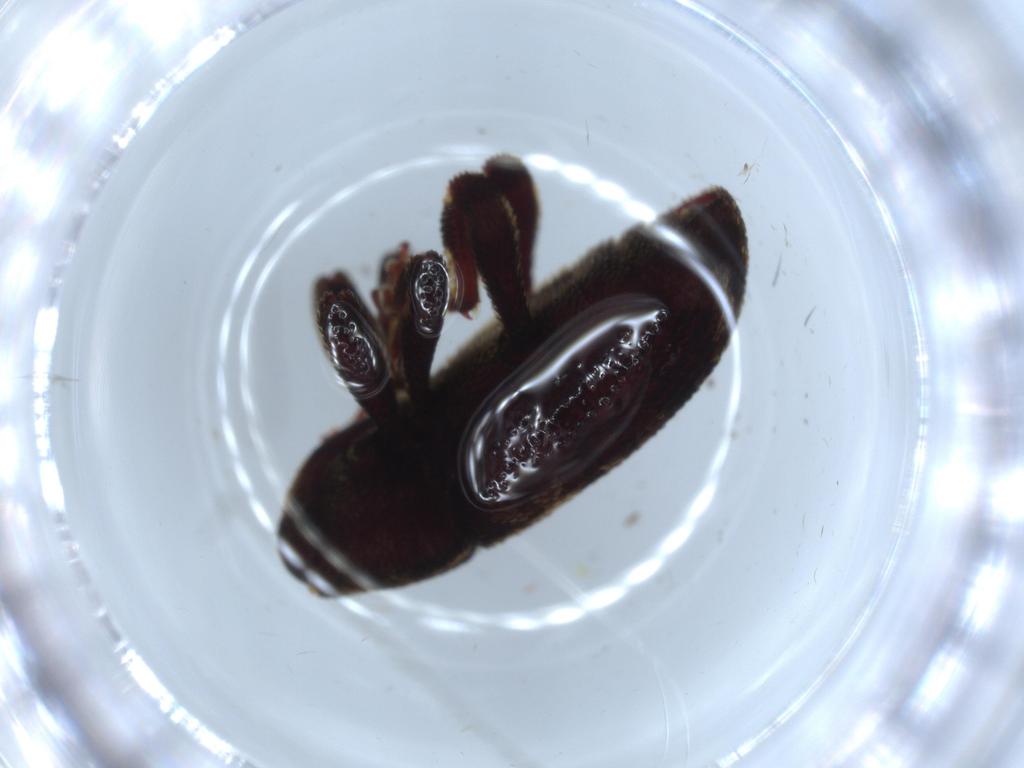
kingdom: Animalia
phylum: Arthropoda
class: Insecta
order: Coleoptera
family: Curculionidae
